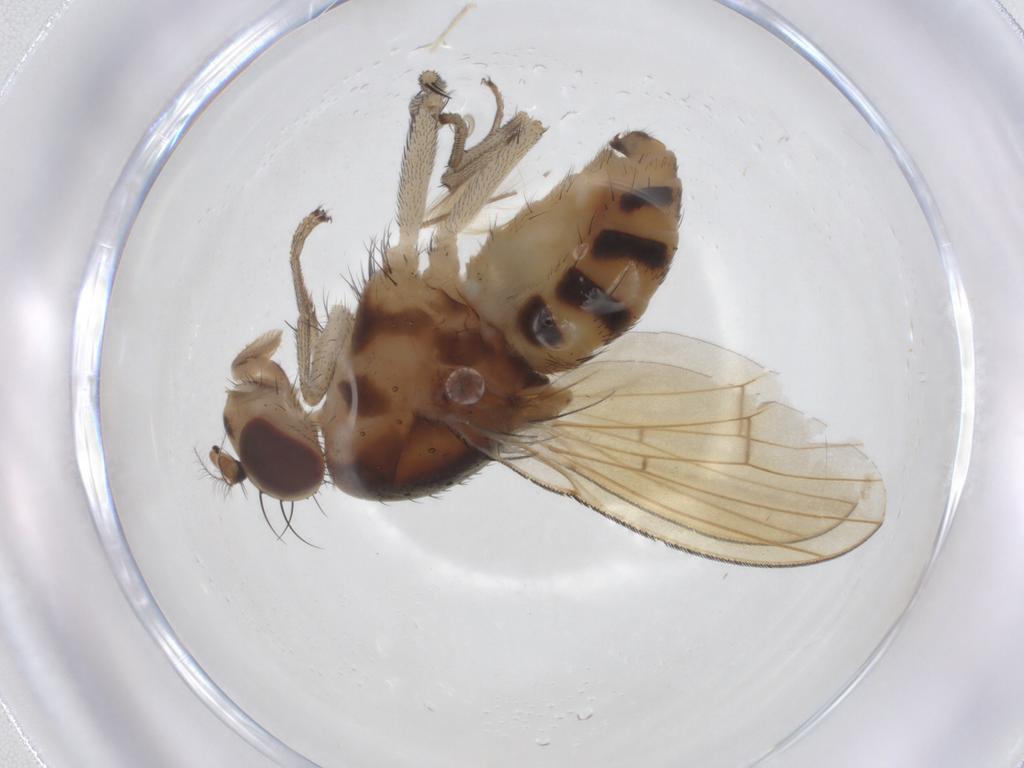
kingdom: Animalia
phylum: Arthropoda
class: Insecta
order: Diptera
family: Lauxaniidae
